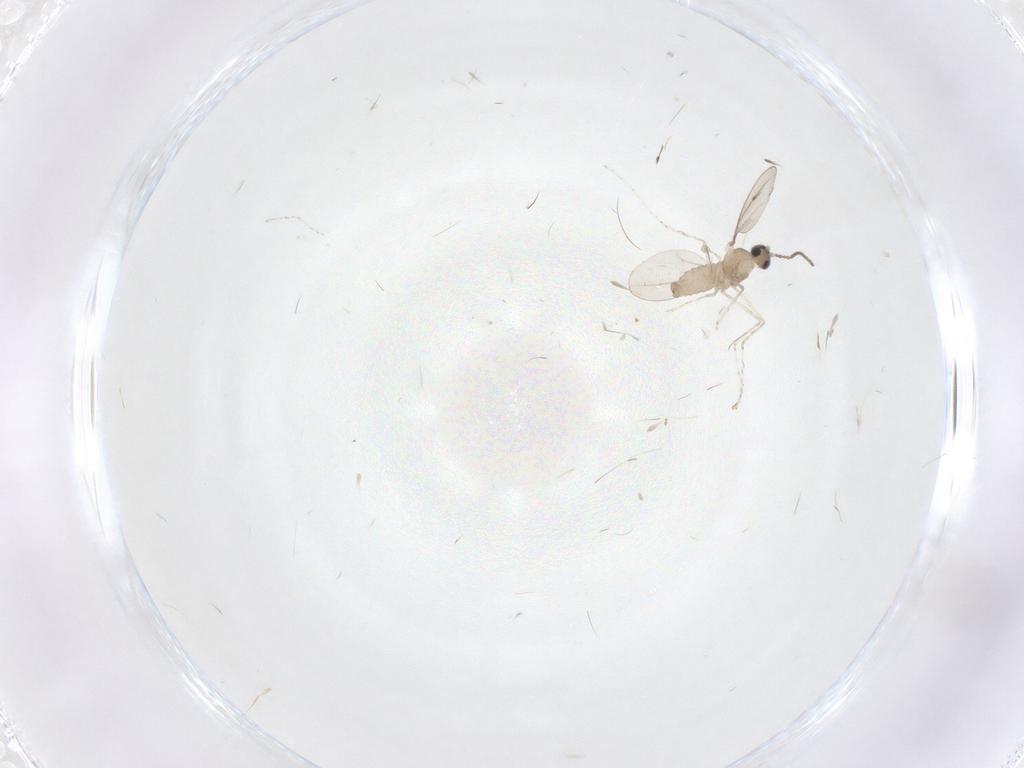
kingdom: Animalia
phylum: Arthropoda
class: Insecta
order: Diptera
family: Cecidomyiidae
